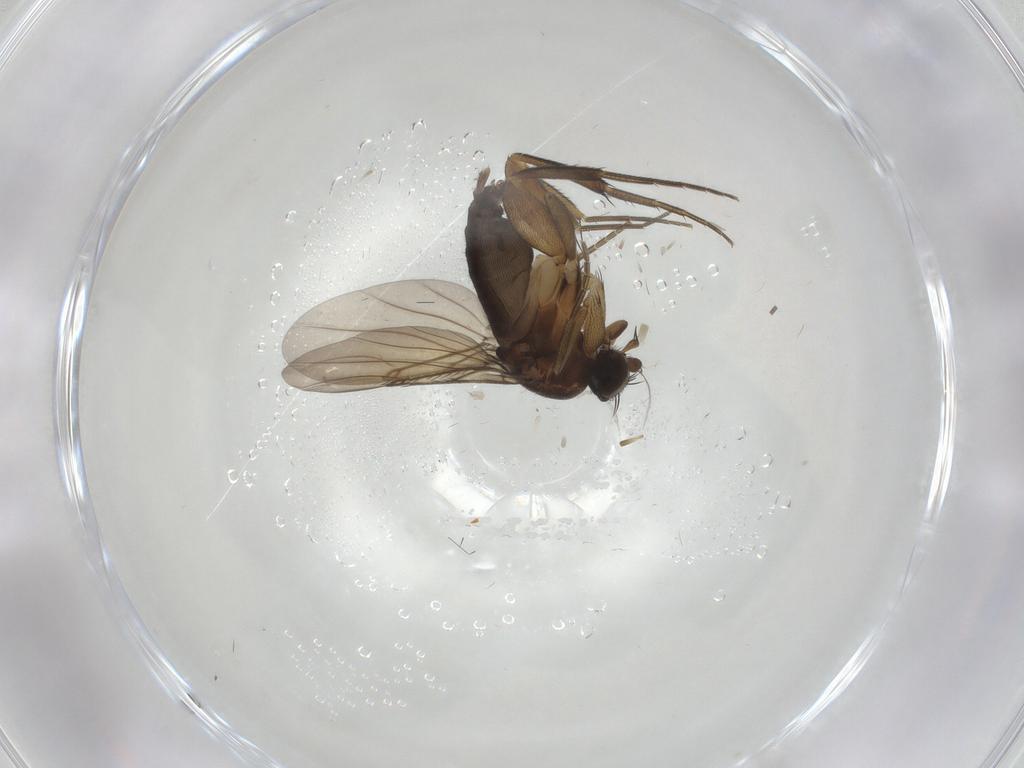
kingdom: Animalia
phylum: Arthropoda
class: Insecta
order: Diptera
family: Phoridae
